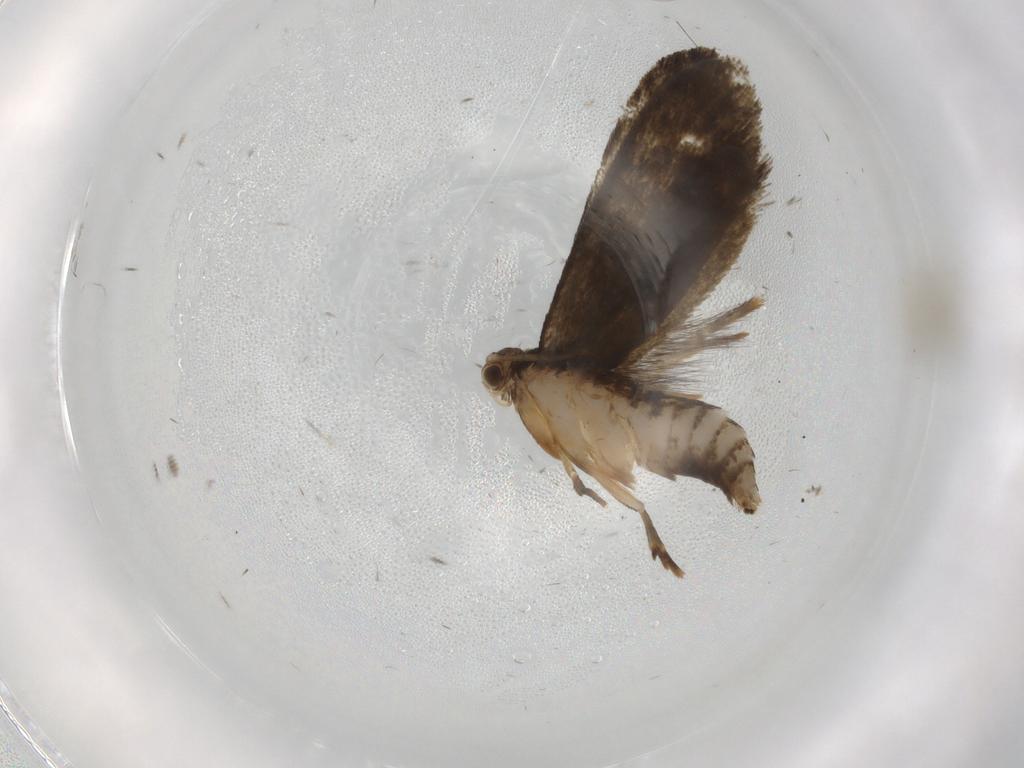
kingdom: Animalia
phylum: Arthropoda
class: Insecta
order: Lepidoptera
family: Crambidae
